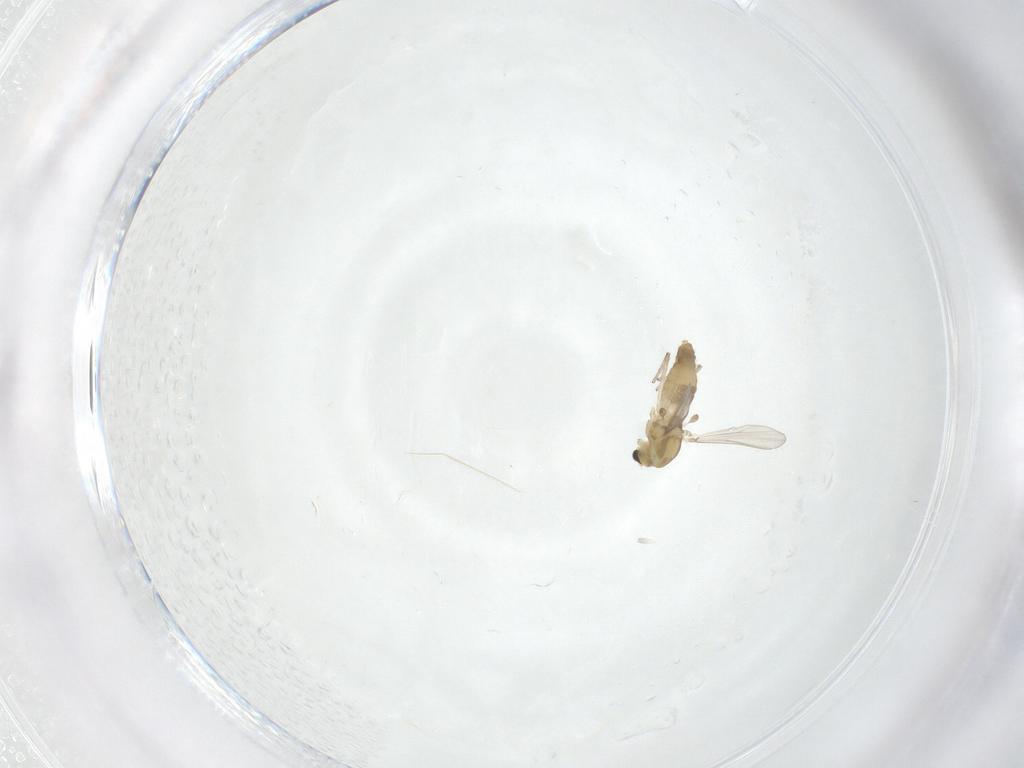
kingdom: Animalia
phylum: Arthropoda
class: Insecta
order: Diptera
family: Chironomidae
